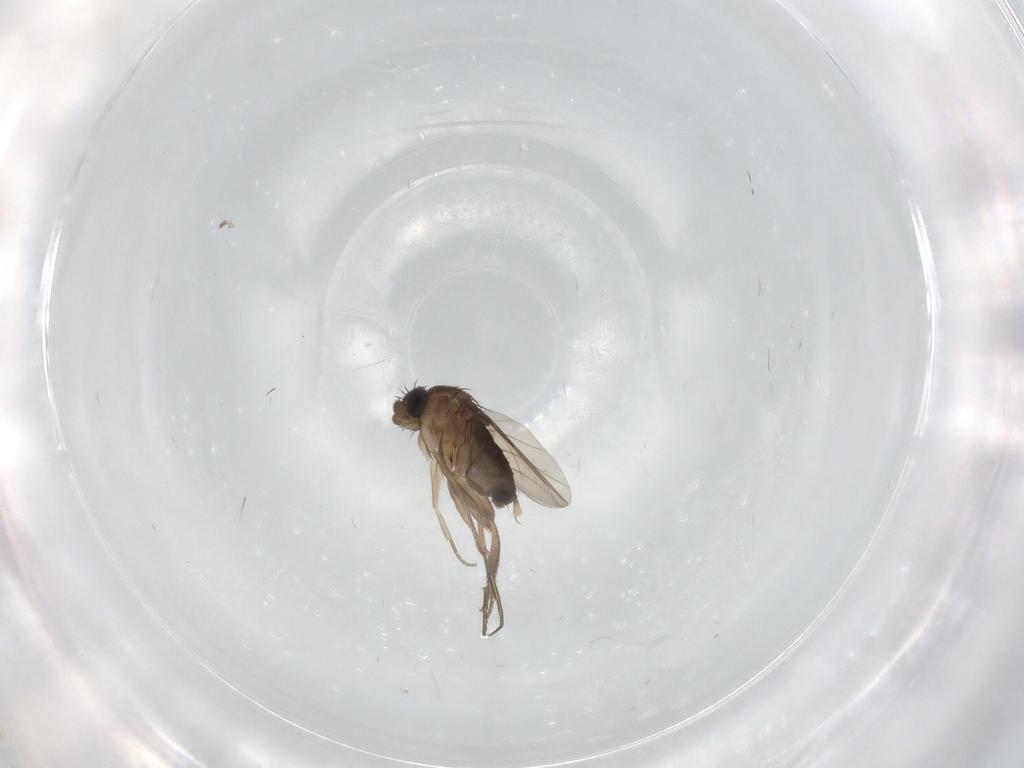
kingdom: Animalia
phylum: Arthropoda
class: Insecta
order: Diptera
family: Phoridae
